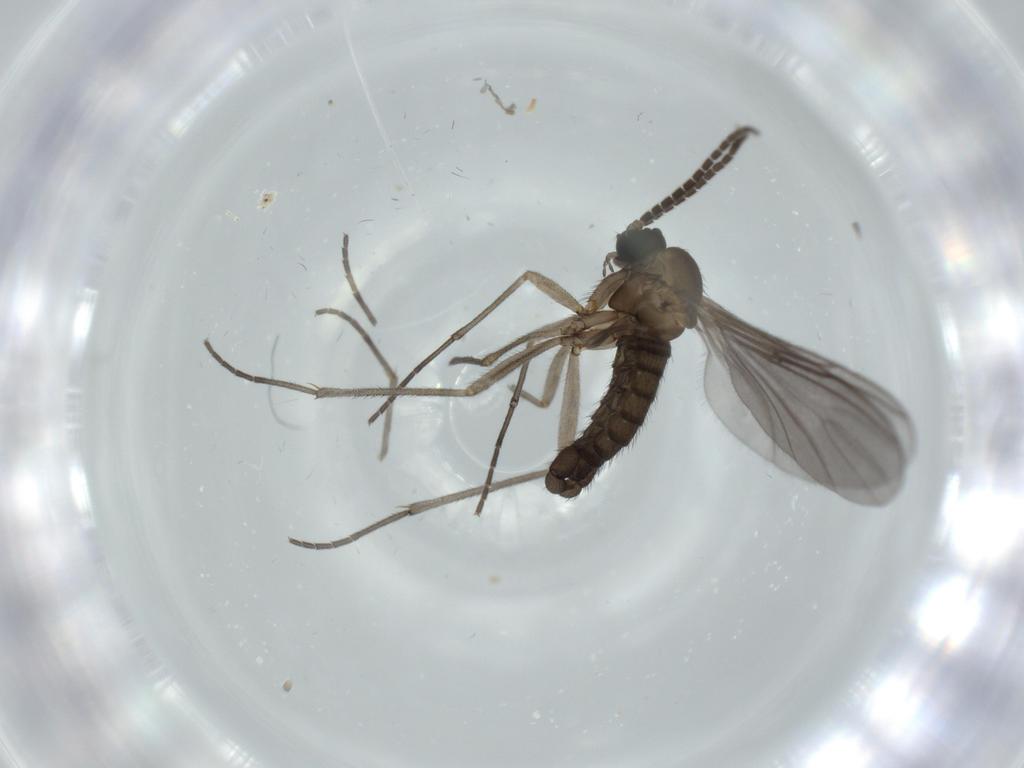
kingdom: Animalia
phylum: Arthropoda
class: Insecta
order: Diptera
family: Sciaridae
